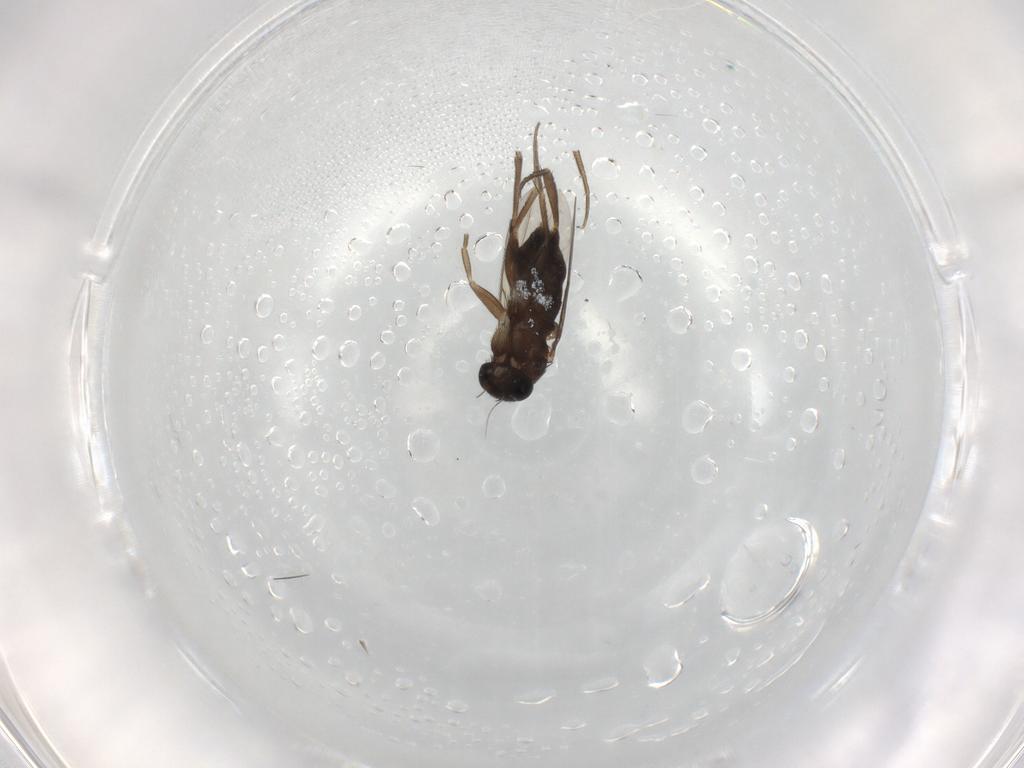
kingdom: Animalia
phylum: Arthropoda
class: Insecta
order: Diptera
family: Phoridae
